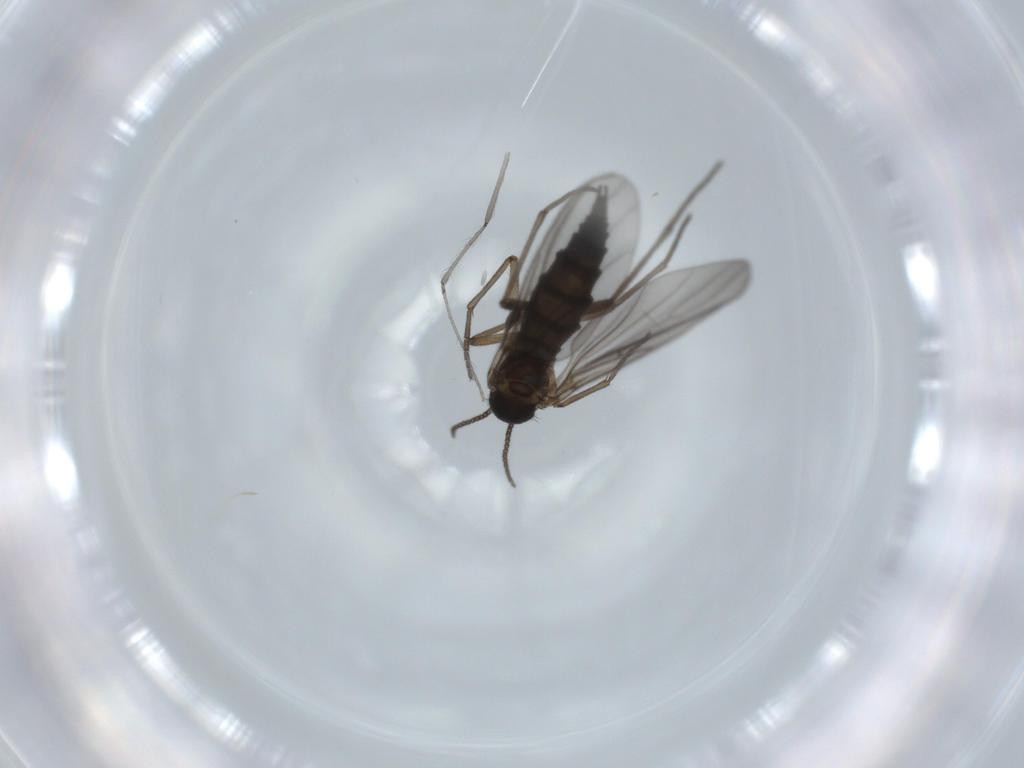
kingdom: Animalia
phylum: Arthropoda
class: Insecta
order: Diptera
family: Sciaridae
